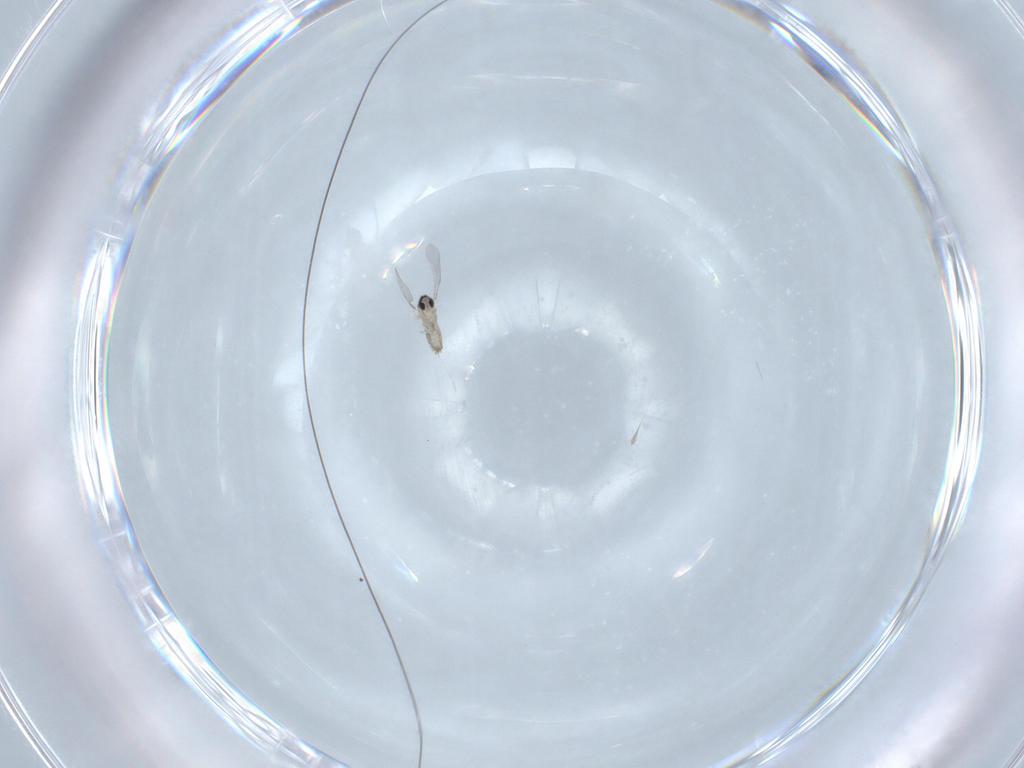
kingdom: Animalia
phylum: Arthropoda
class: Insecta
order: Diptera
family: Cecidomyiidae
